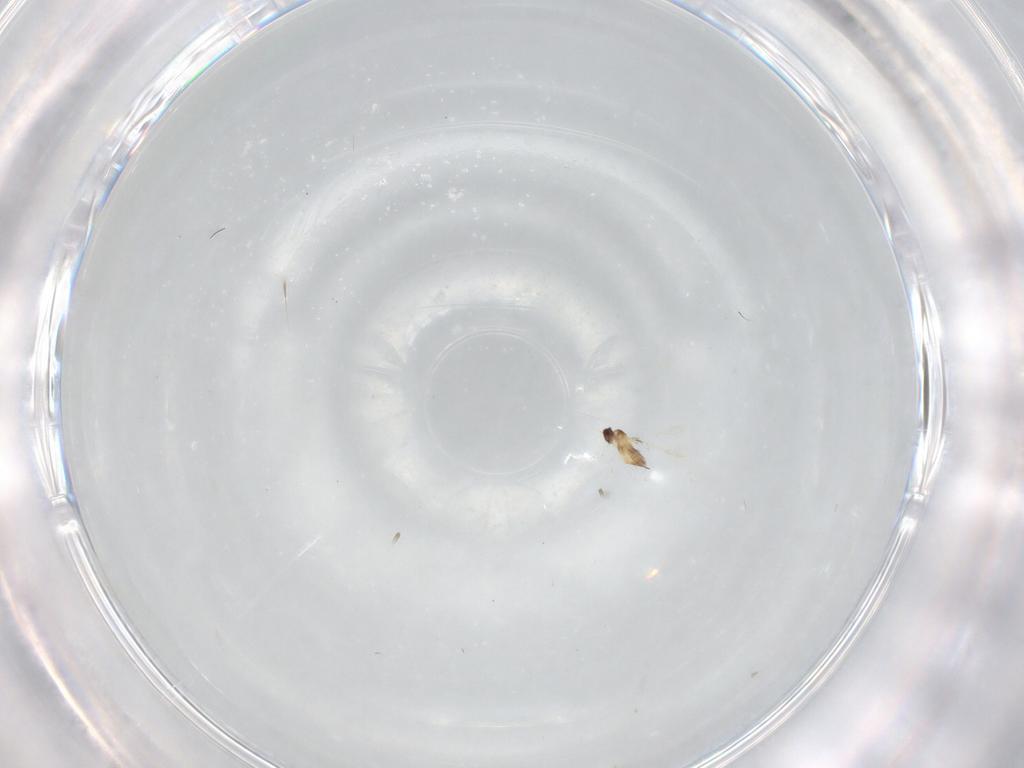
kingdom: Animalia
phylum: Arthropoda
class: Insecta
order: Hymenoptera
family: Mymaridae
